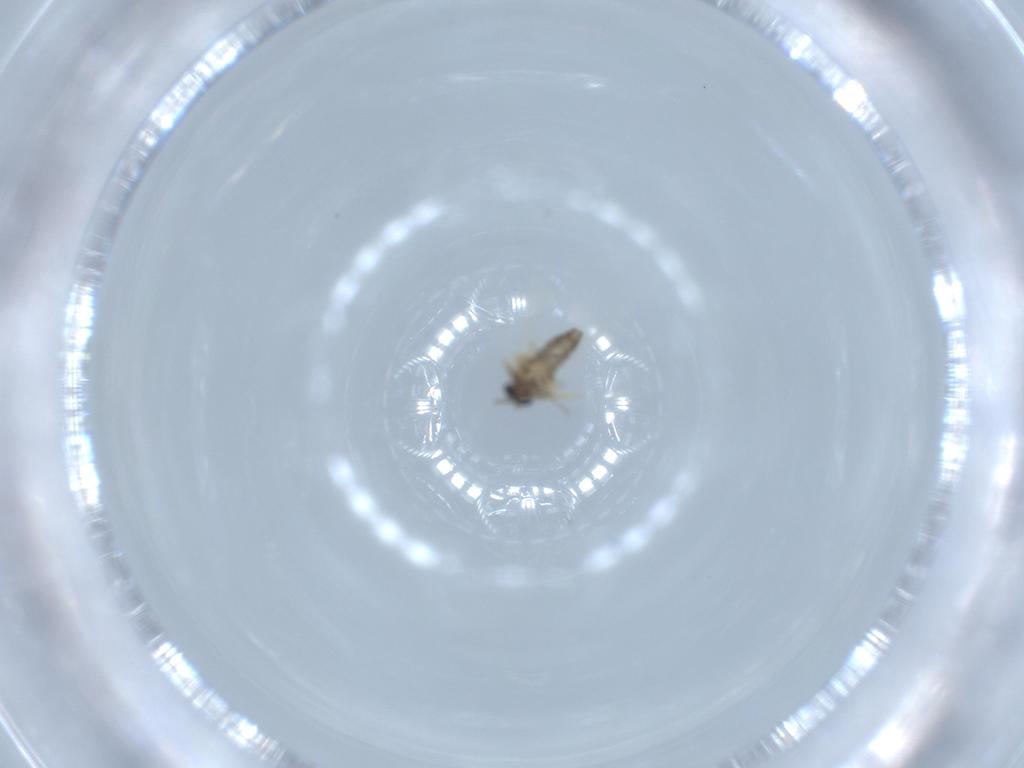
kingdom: Animalia
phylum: Arthropoda
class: Insecta
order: Diptera
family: Ceratopogonidae
